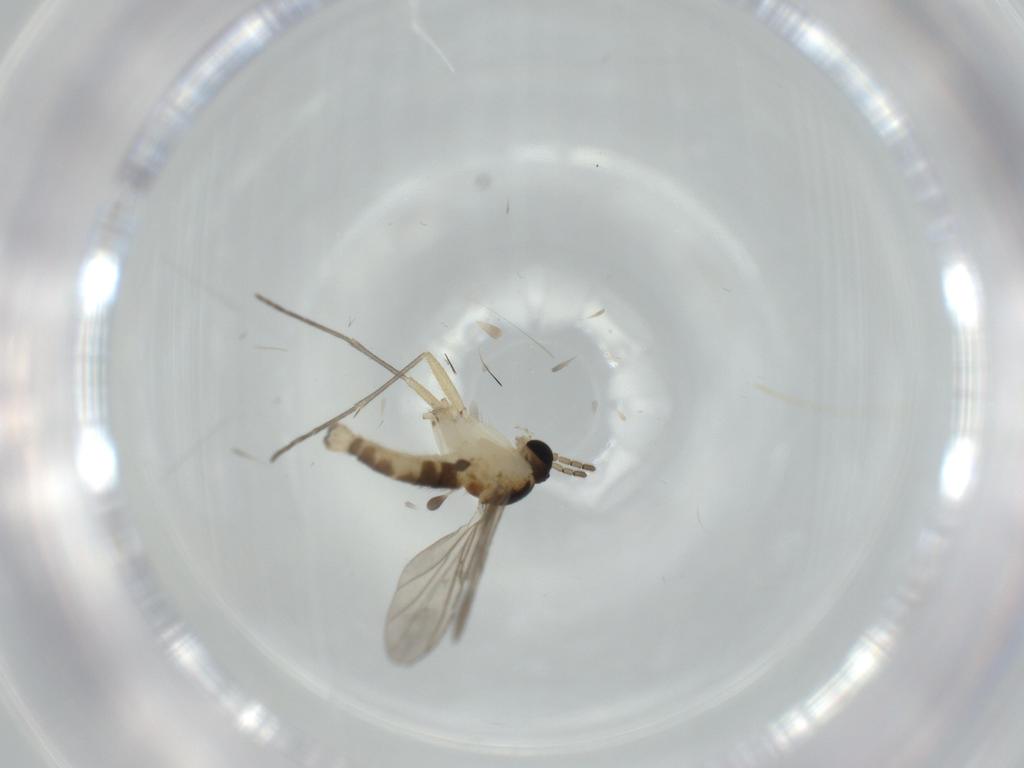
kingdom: Animalia
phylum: Arthropoda
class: Insecta
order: Diptera
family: Sciaridae
